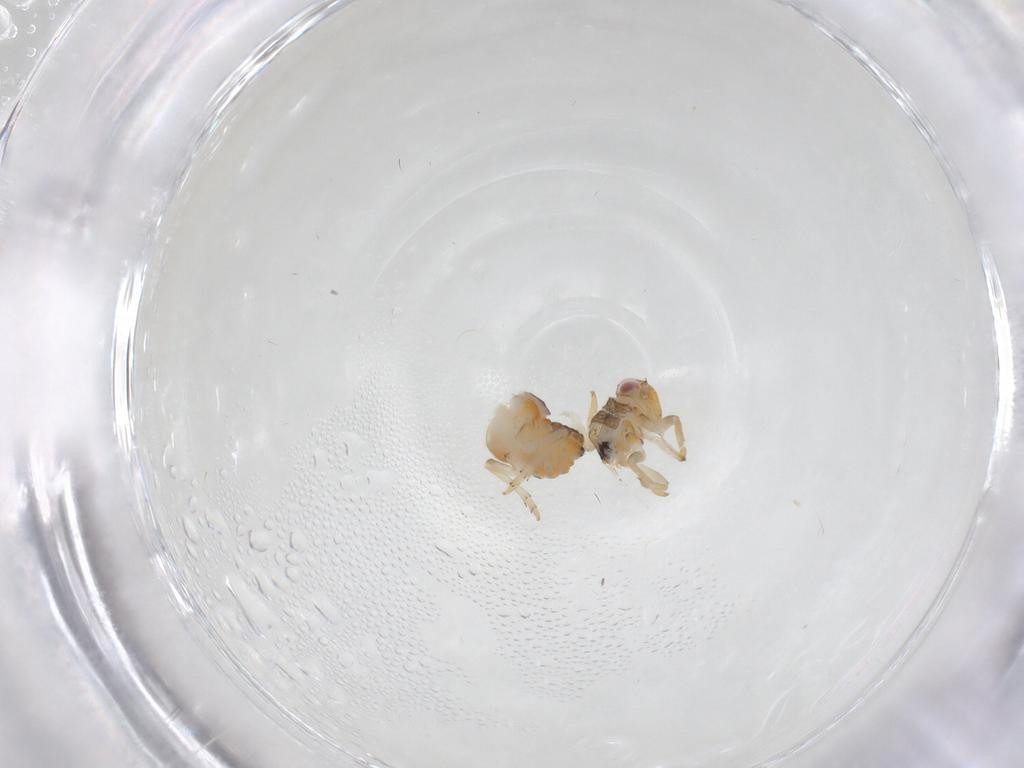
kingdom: Animalia
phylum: Arthropoda
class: Insecta
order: Hemiptera
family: Issidae
